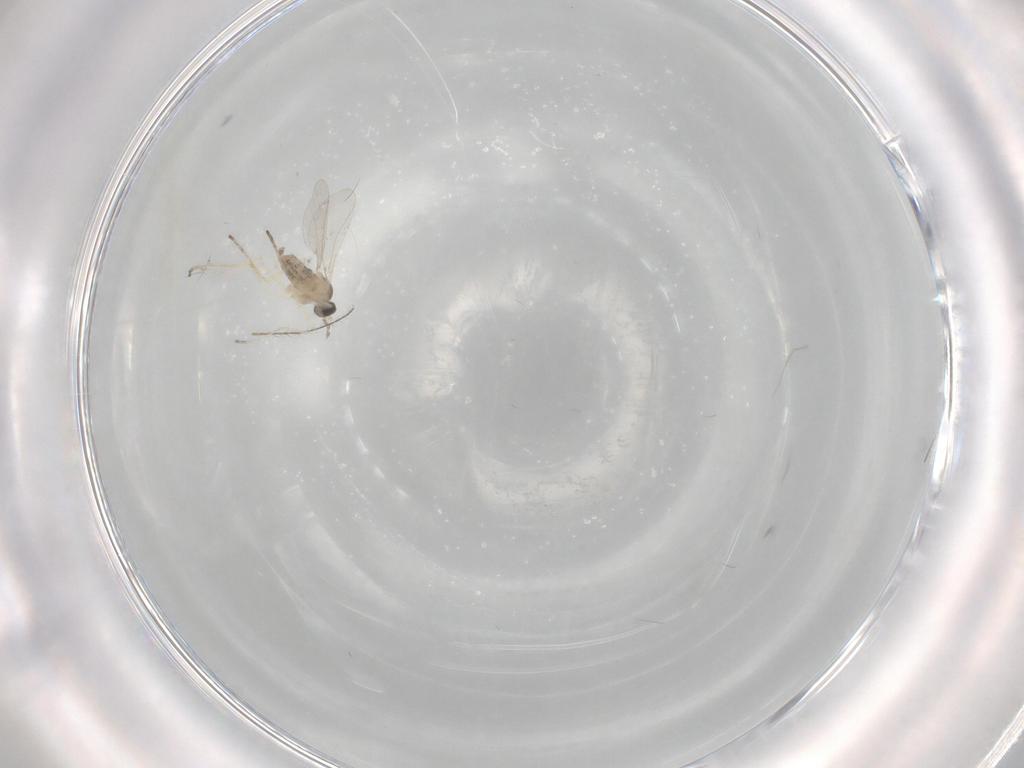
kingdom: Animalia
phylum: Arthropoda
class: Insecta
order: Diptera
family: Cecidomyiidae
